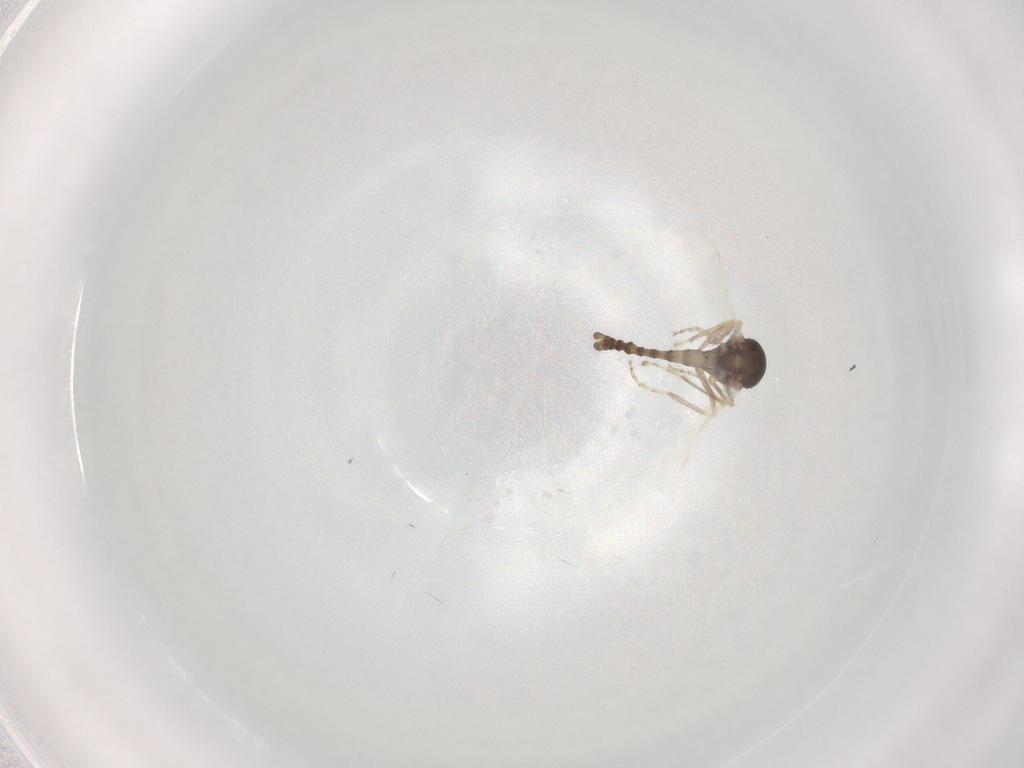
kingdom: Animalia
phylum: Arthropoda
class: Insecta
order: Diptera
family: Ceratopogonidae
